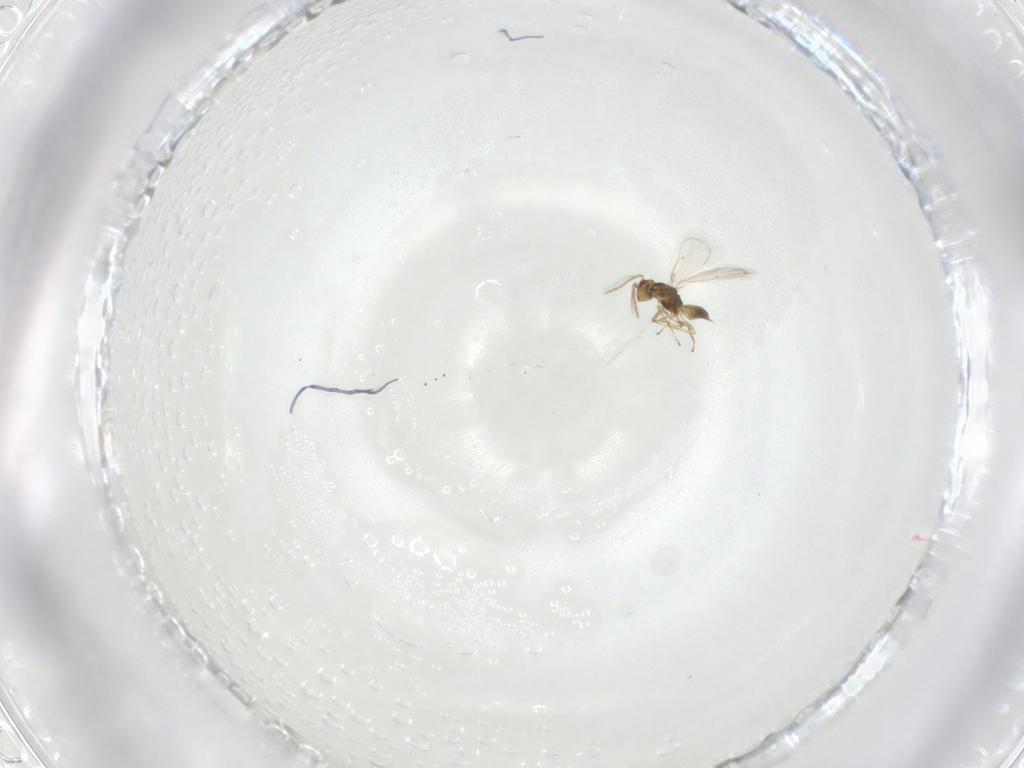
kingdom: Animalia
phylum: Arthropoda
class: Insecta
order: Hymenoptera
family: Eulophidae
